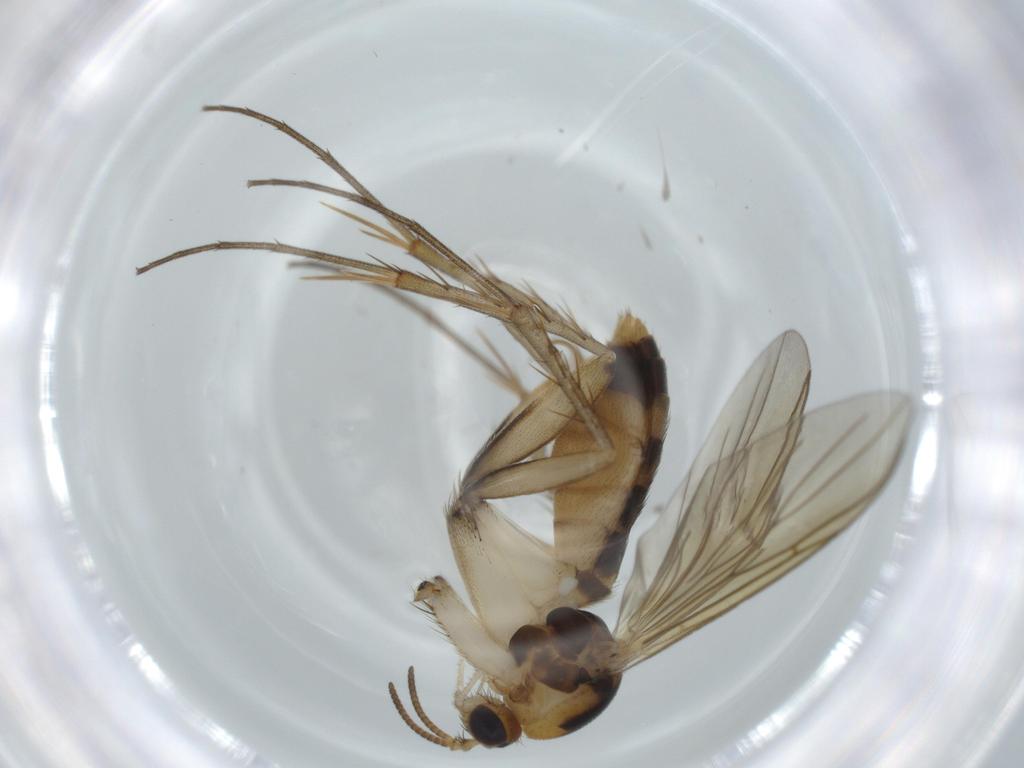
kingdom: Animalia
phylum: Arthropoda
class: Insecta
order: Diptera
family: Mycetophilidae
